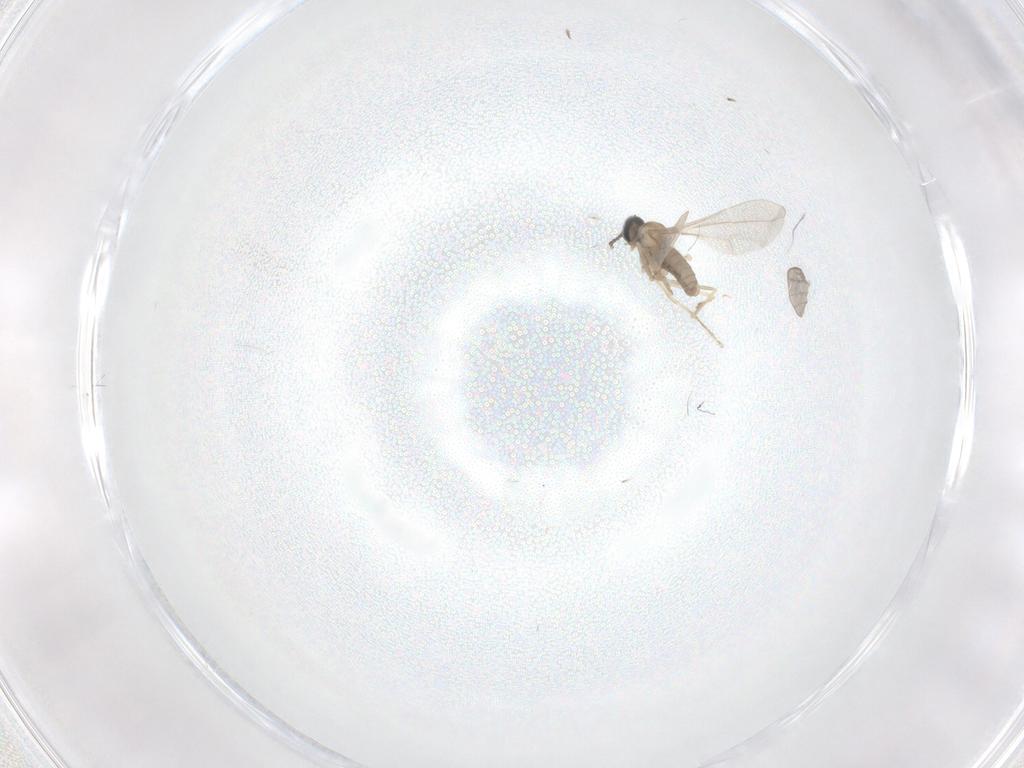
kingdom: Animalia
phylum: Arthropoda
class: Insecta
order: Diptera
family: Cecidomyiidae
